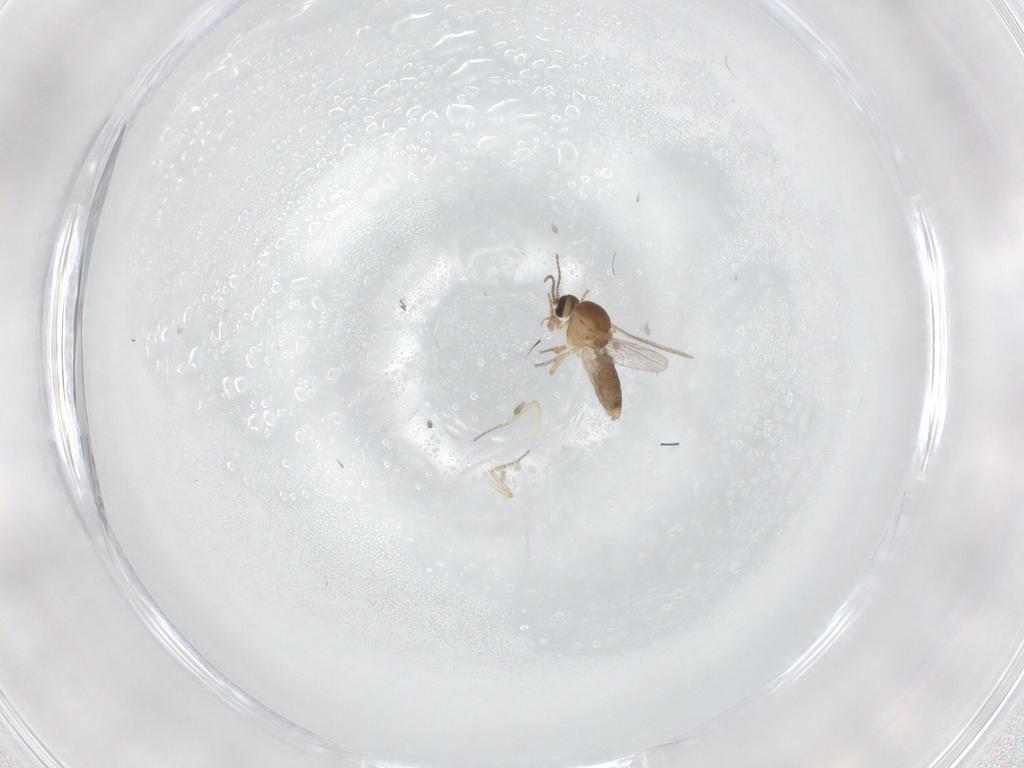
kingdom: Animalia
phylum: Arthropoda
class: Insecta
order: Diptera
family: Ceratopogonidae
